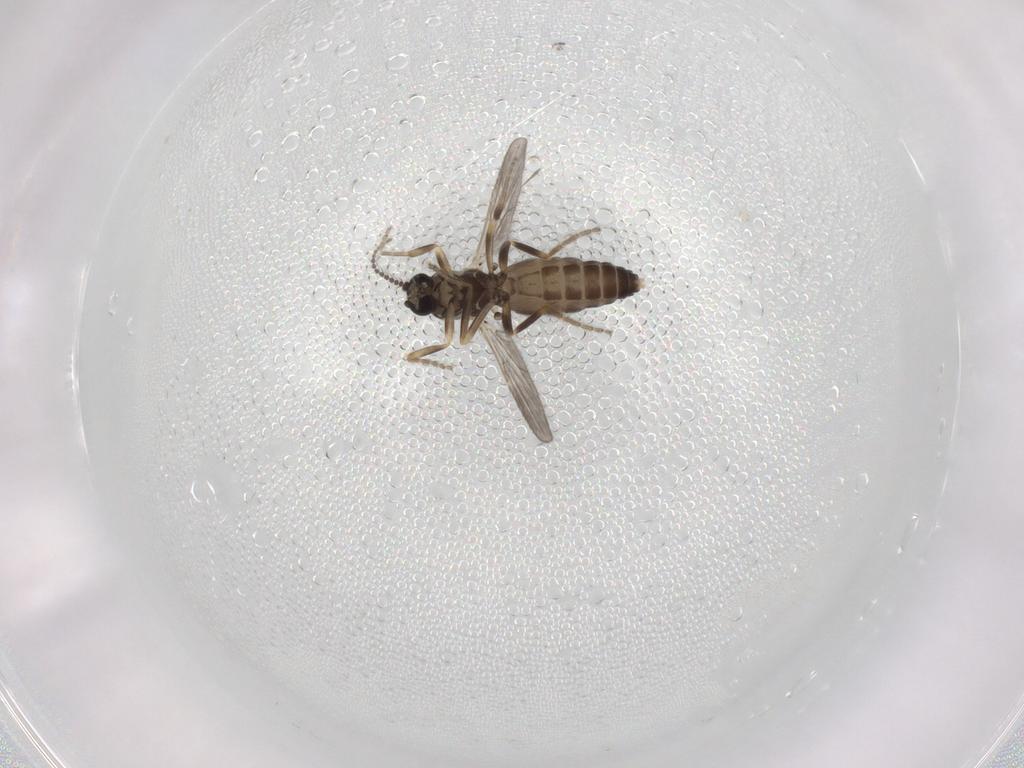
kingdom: Animalia
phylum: Arthropoda
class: Insecta
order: Diptera
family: Ceratopogonidae
